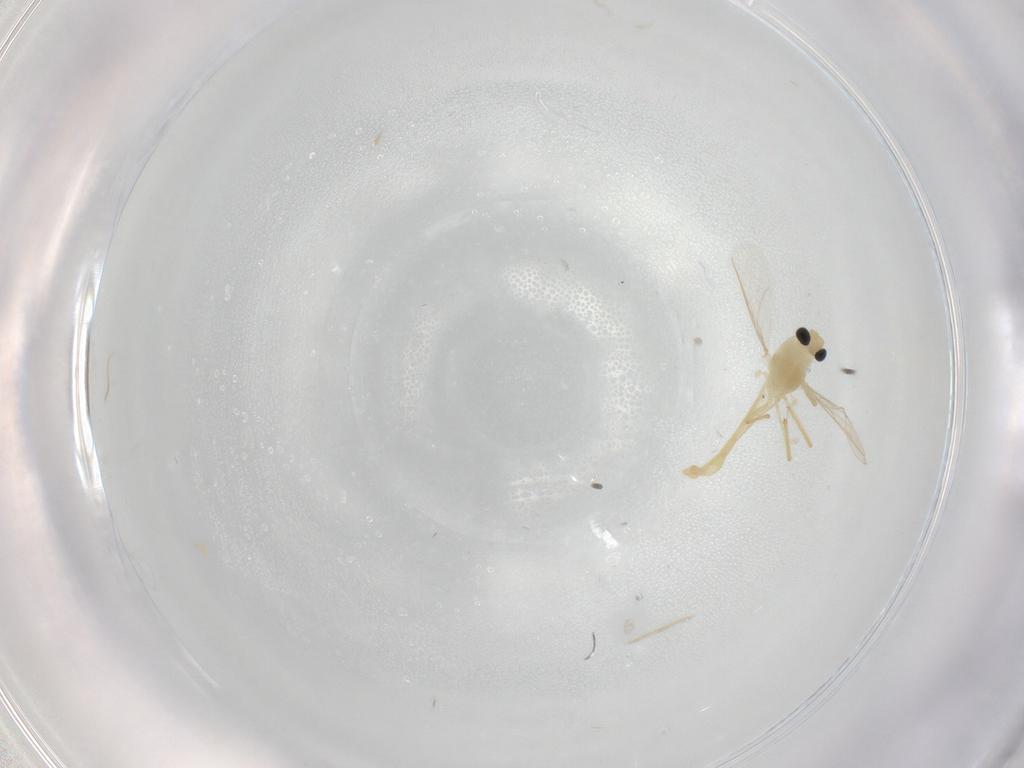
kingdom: Animalia
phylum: Arthropoda
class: Insecta
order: Diptera
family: Chironomidae
